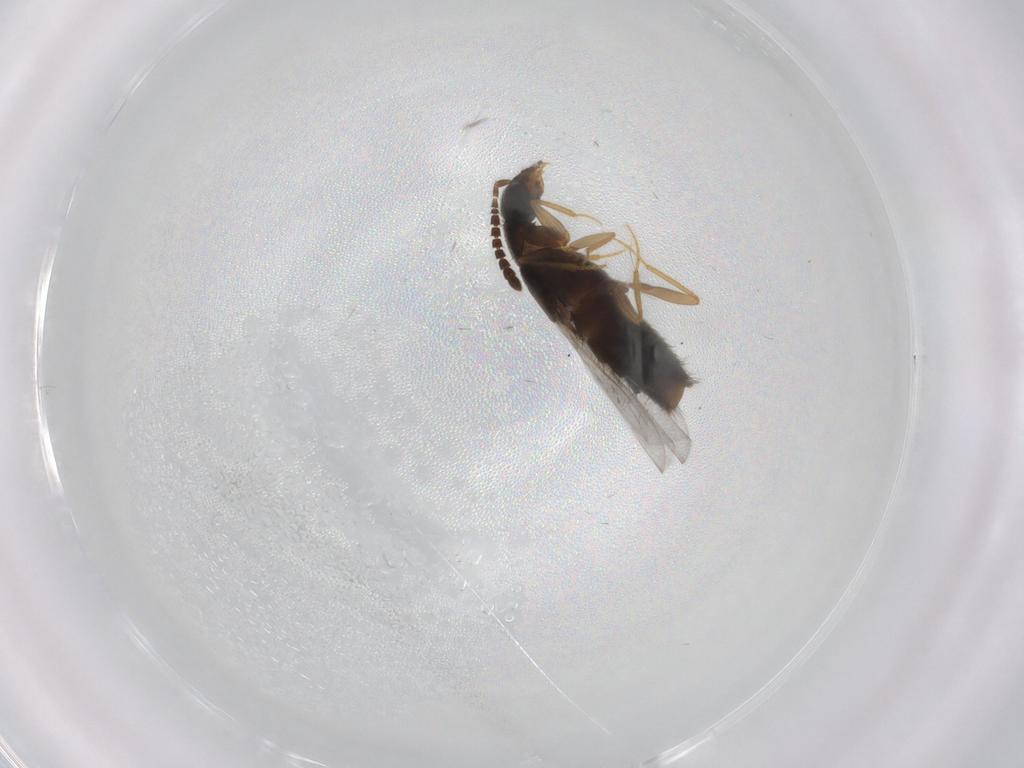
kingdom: Animalia
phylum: Arthropoda
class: Insecta
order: Coleoptera
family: Staphylinidae
